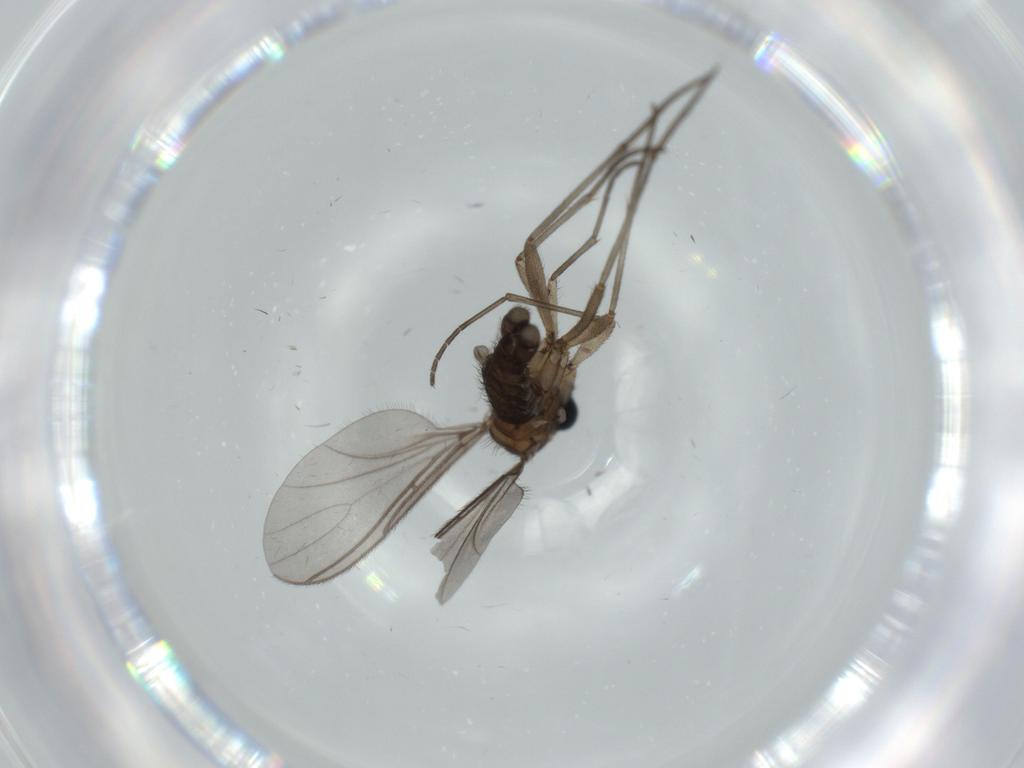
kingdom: Animalia
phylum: Arthropoda
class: Insecta
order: Diptera
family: Sciaridae
